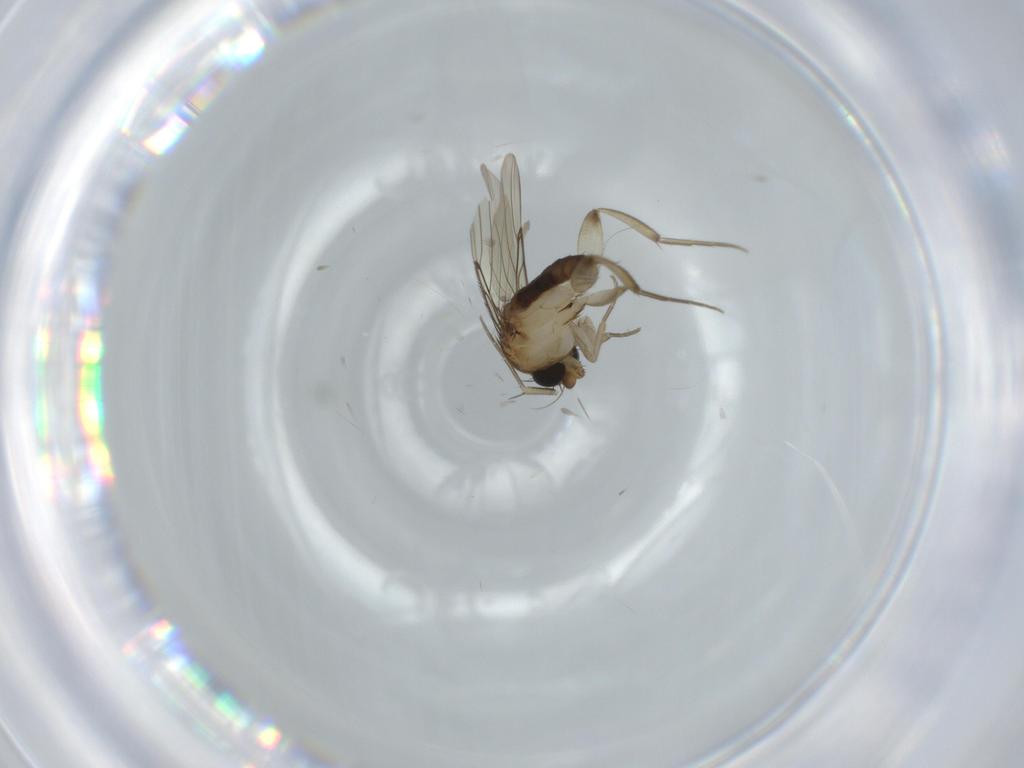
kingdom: Animalia
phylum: Arthropoda
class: Insecta
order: Diptera
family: Phoridae
